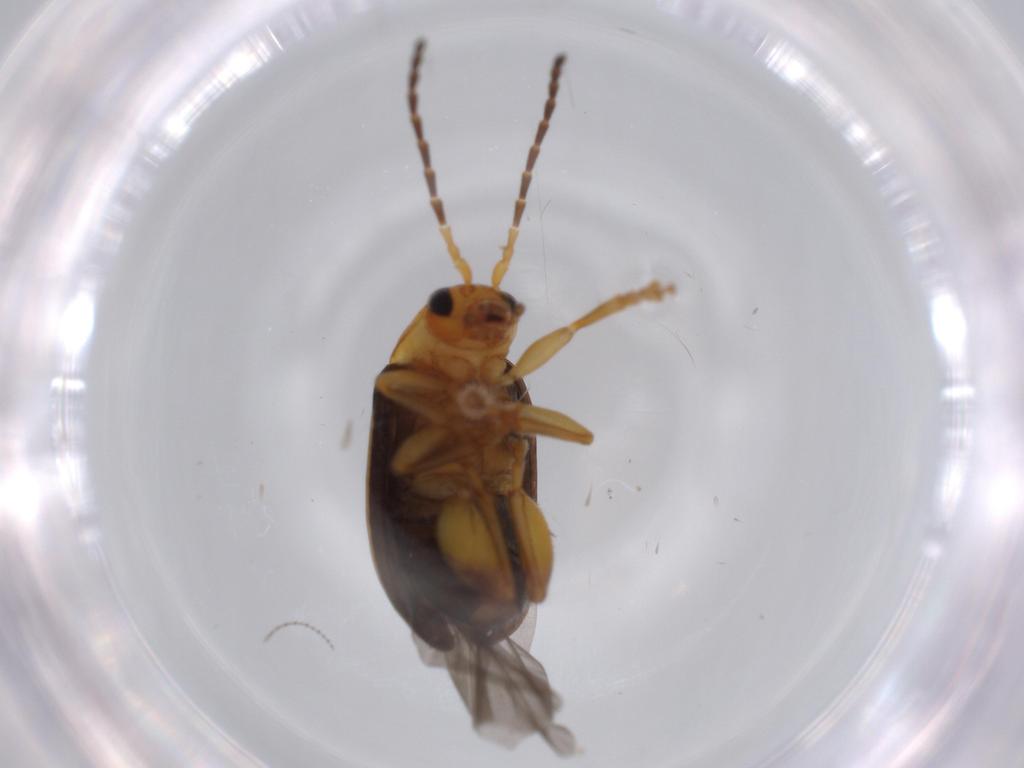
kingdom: Animalia
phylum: Arthropoda
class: Insecta
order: Coleoptera
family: Chrysomelidae
